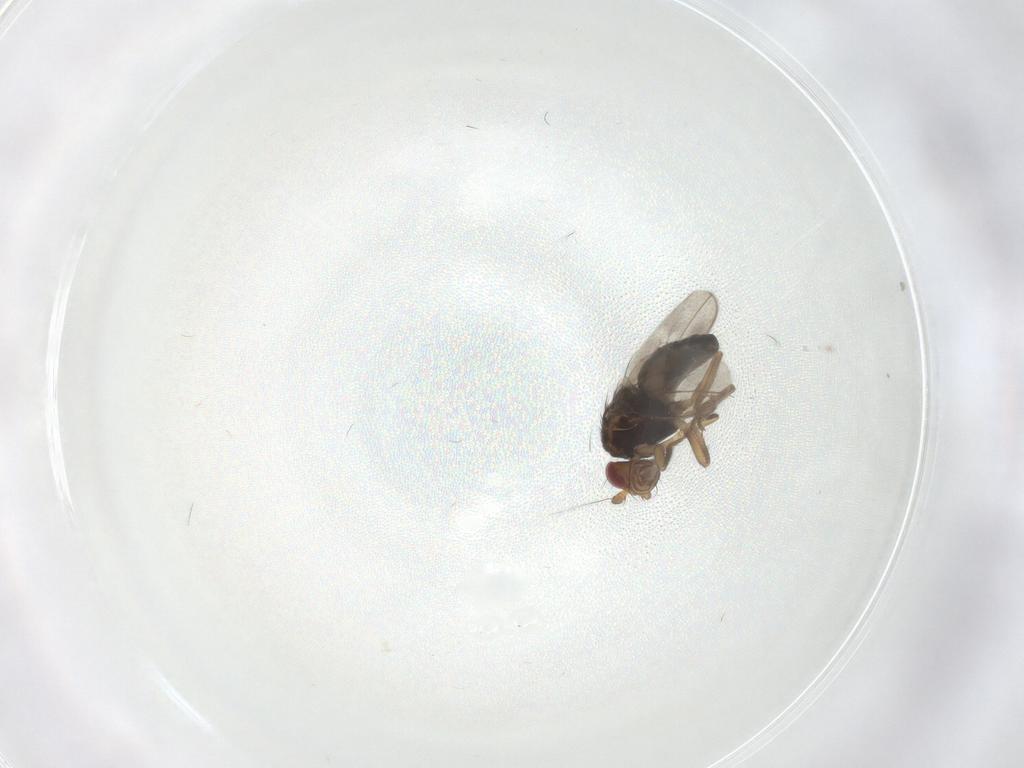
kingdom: Animalia
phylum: Arthropoda
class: Insecta
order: Diptera
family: Sphaeroceridae
